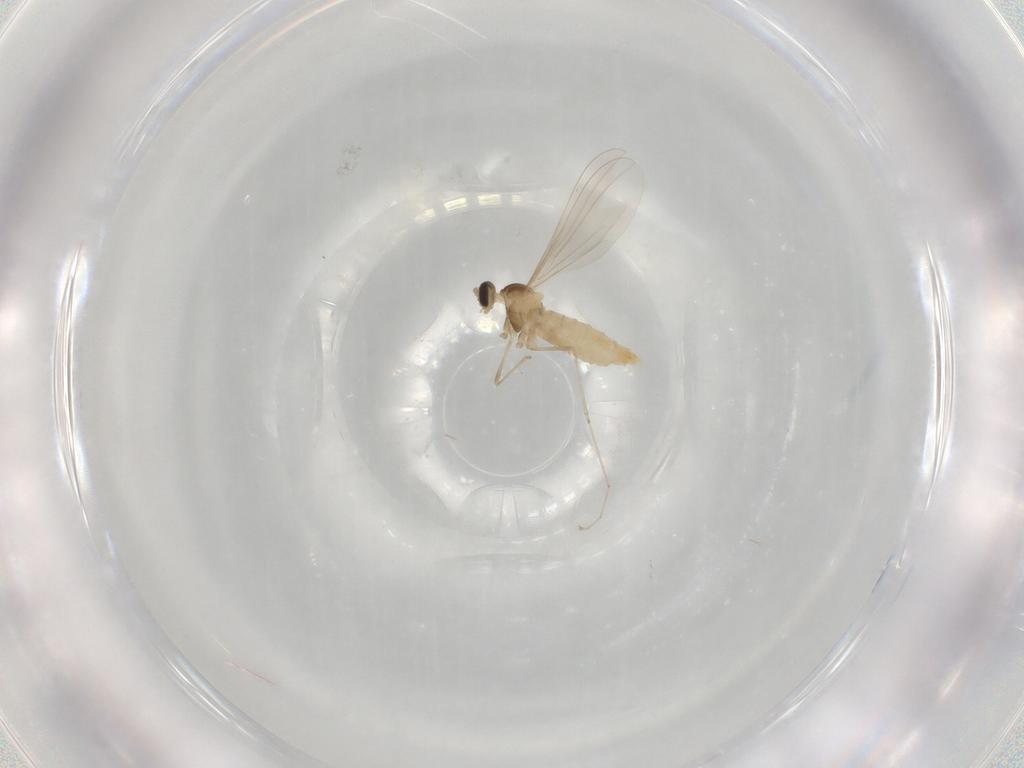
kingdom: Animalia
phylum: Arthropoda
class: Insecta
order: Diptera
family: Cecidomyiidae
